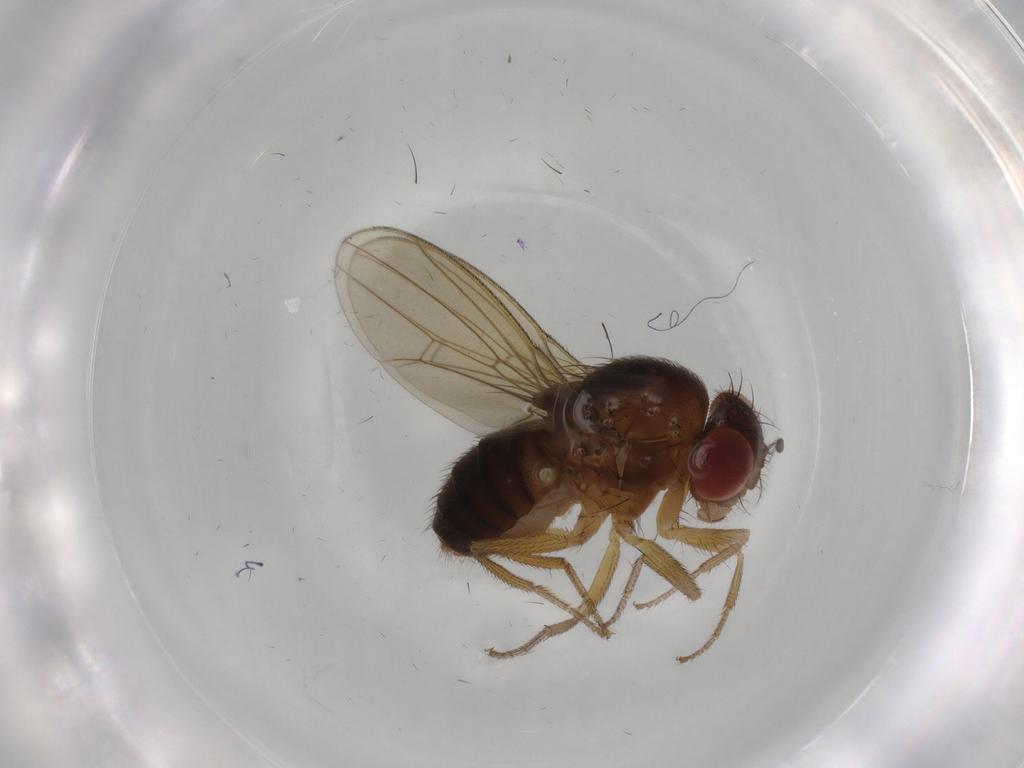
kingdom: Animalia
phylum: Arthropoda
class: Insecta
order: Diptera
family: Drosophilidae
